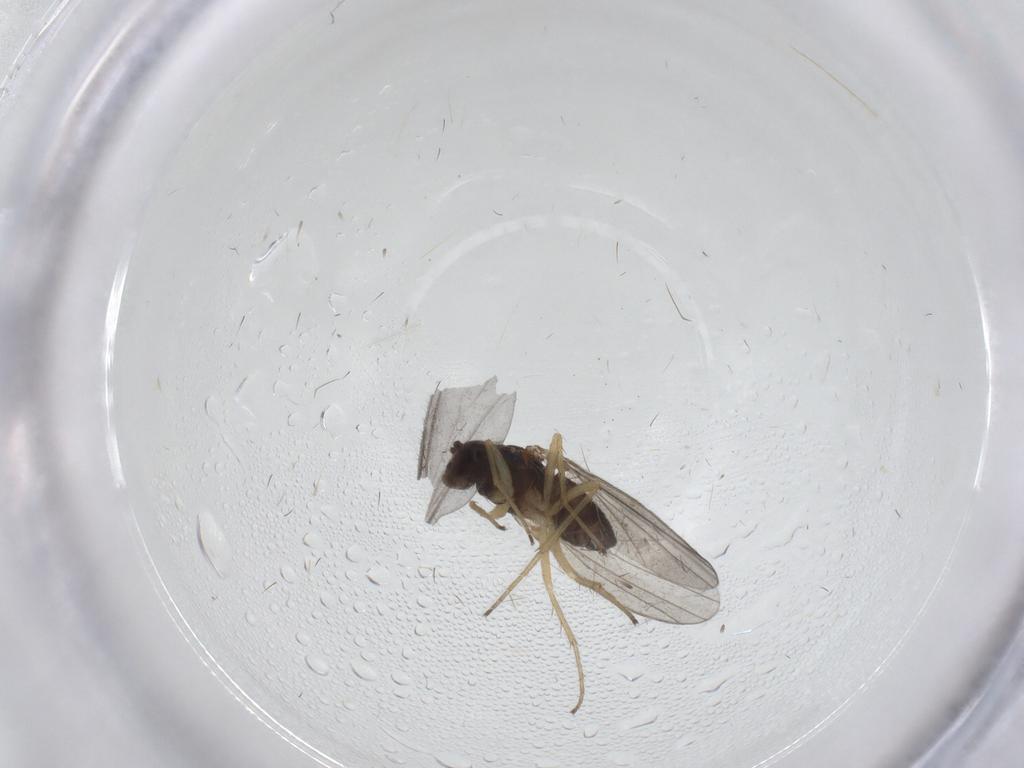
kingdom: Animalia
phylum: Arthropoda
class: Insecta
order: Diptera
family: Dolichopodidae
